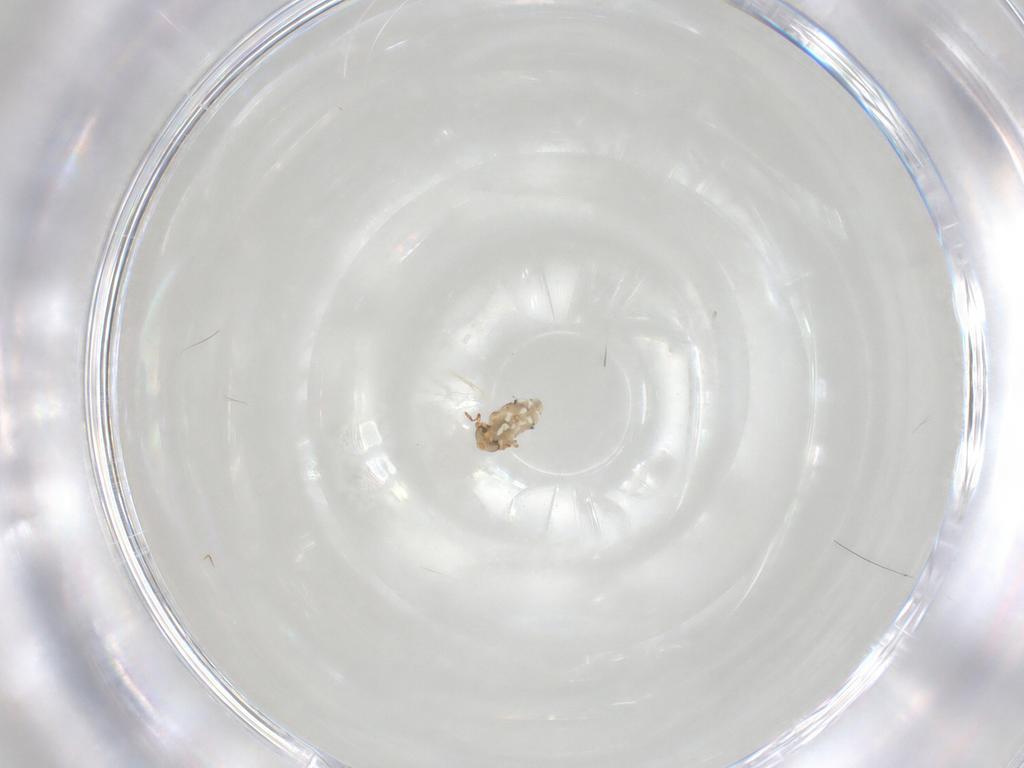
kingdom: Animalia
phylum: Arthropoda
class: Collembola
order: Symphypleona
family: Bourletiellidae
